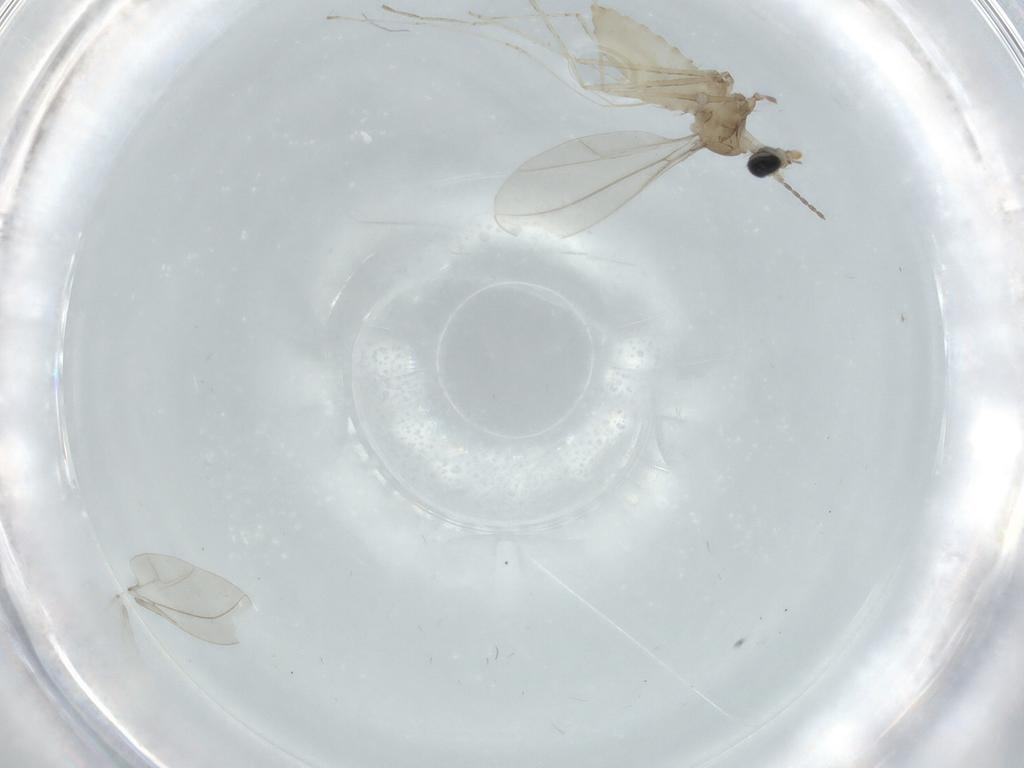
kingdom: Animalia
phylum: Arthropoda
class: Insecta
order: Diptera
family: Cecidomyiidae
